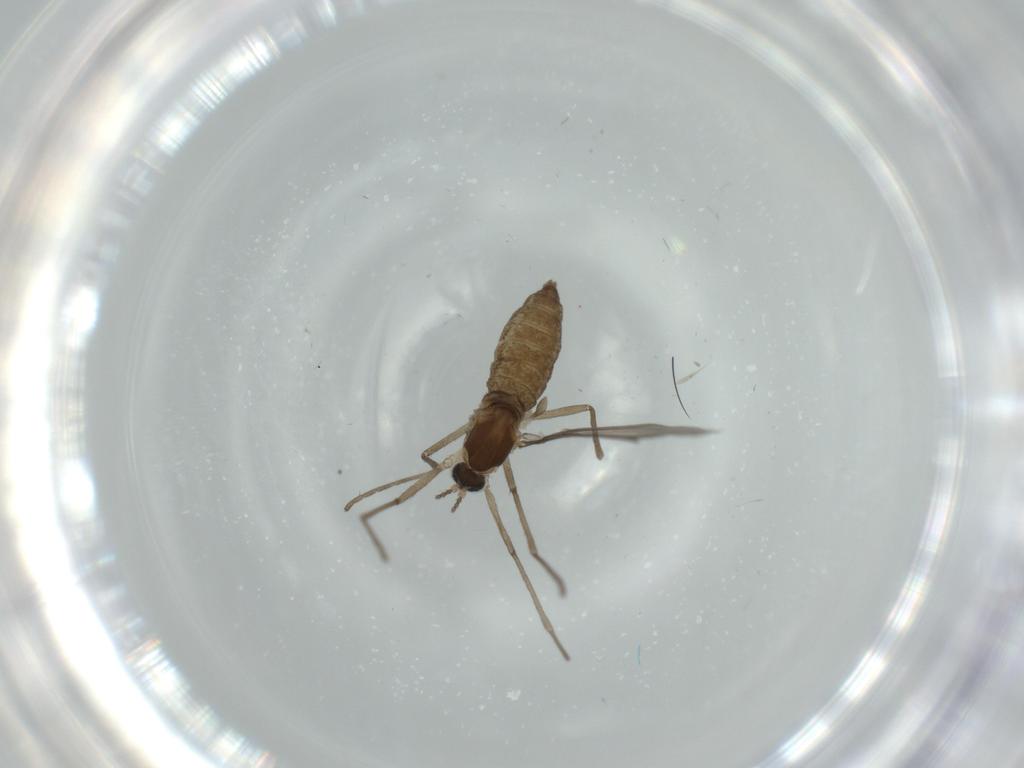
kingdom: Animalia
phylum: Arthropoda
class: Insecta
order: Diptera
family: Cecidomyiidae
